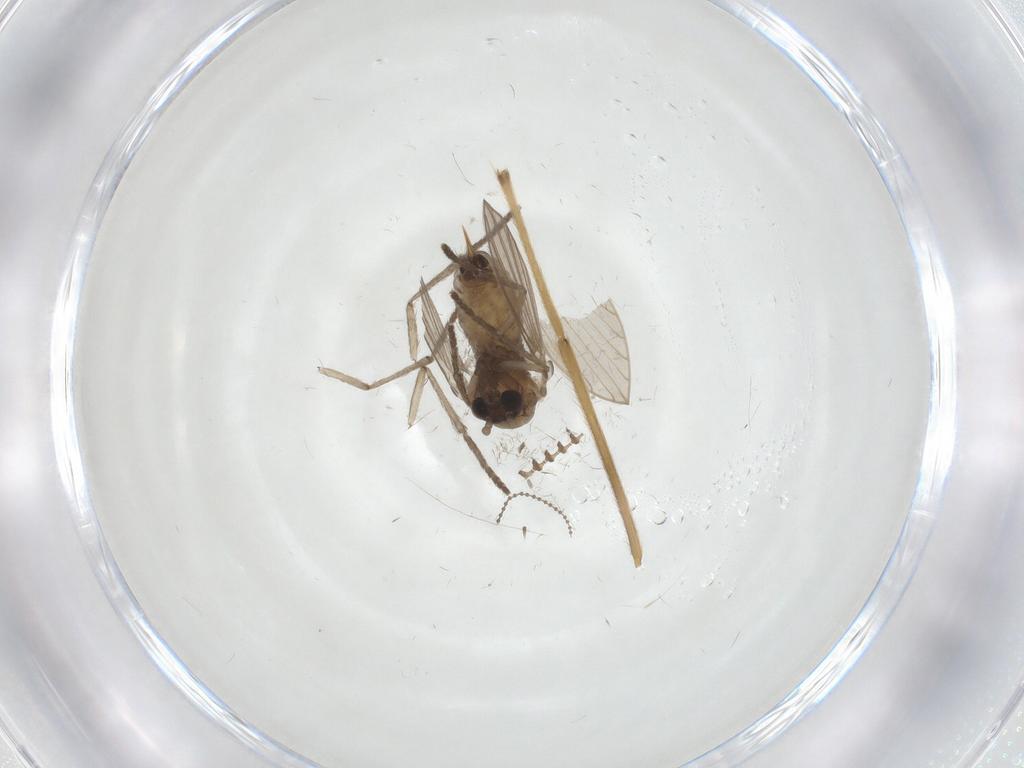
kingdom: Animalia
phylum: Arthropoda
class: Insecta
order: Diptera
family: Psychodidae
